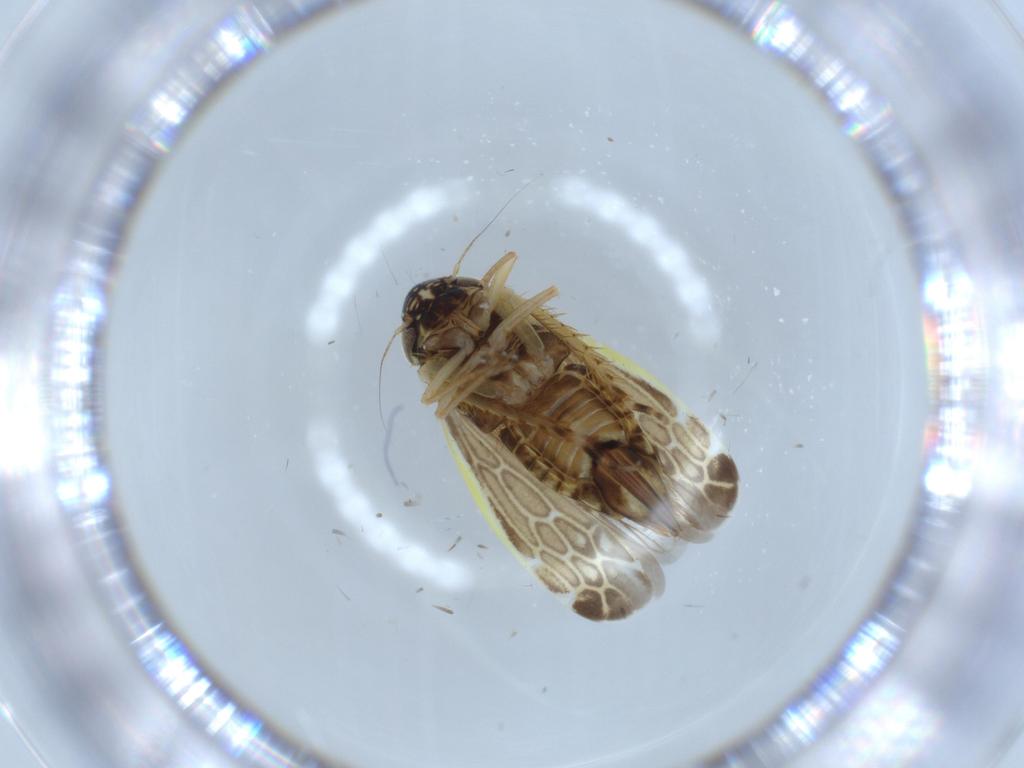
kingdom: Animalia
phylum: Arthropoda
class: Insecta
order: Hemiptera
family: Cicadellidae
